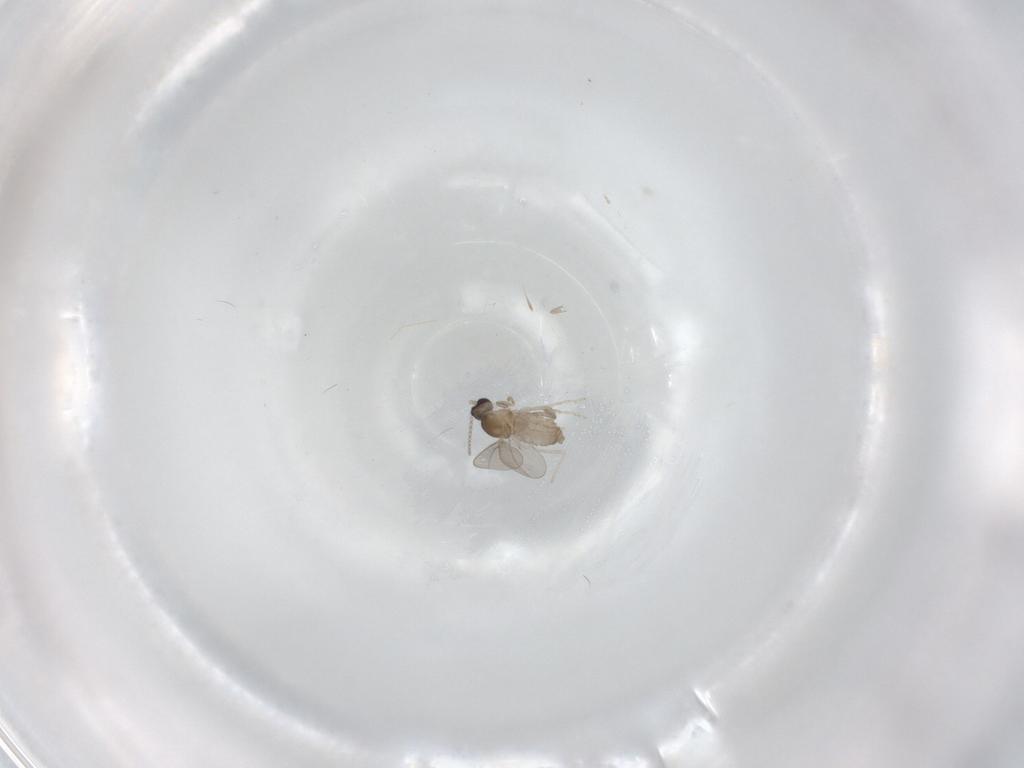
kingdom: Animalia
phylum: Arthropoda
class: Insecta
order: Diptera
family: Cecidomyiidae
